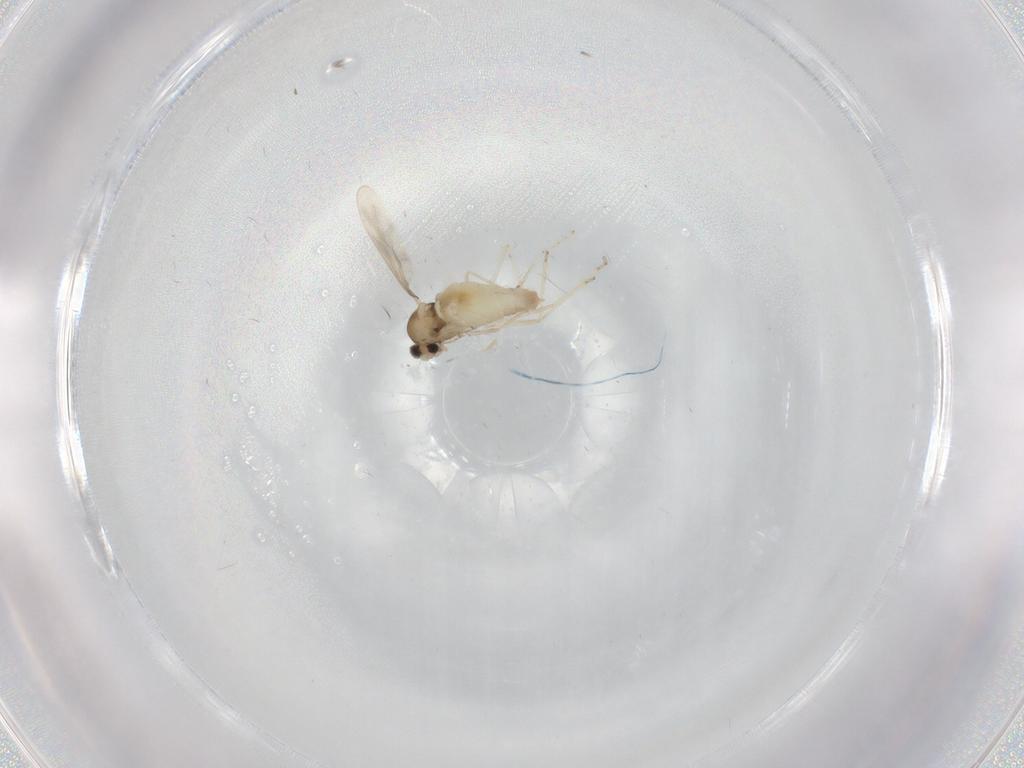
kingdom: Animalia
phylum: Arthropoda
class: Insecta
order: Diptera
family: Cecidomyiidae
